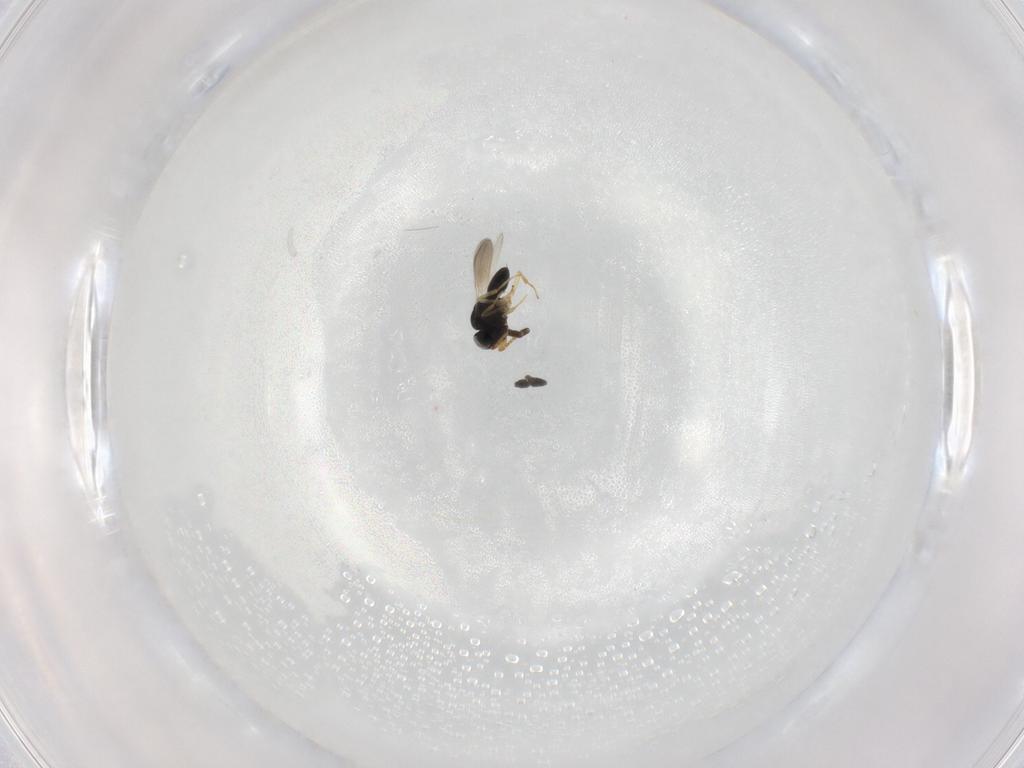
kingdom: Animalia
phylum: Arthropoda
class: Insecta
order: Hymenoptera
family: Scelionidae
